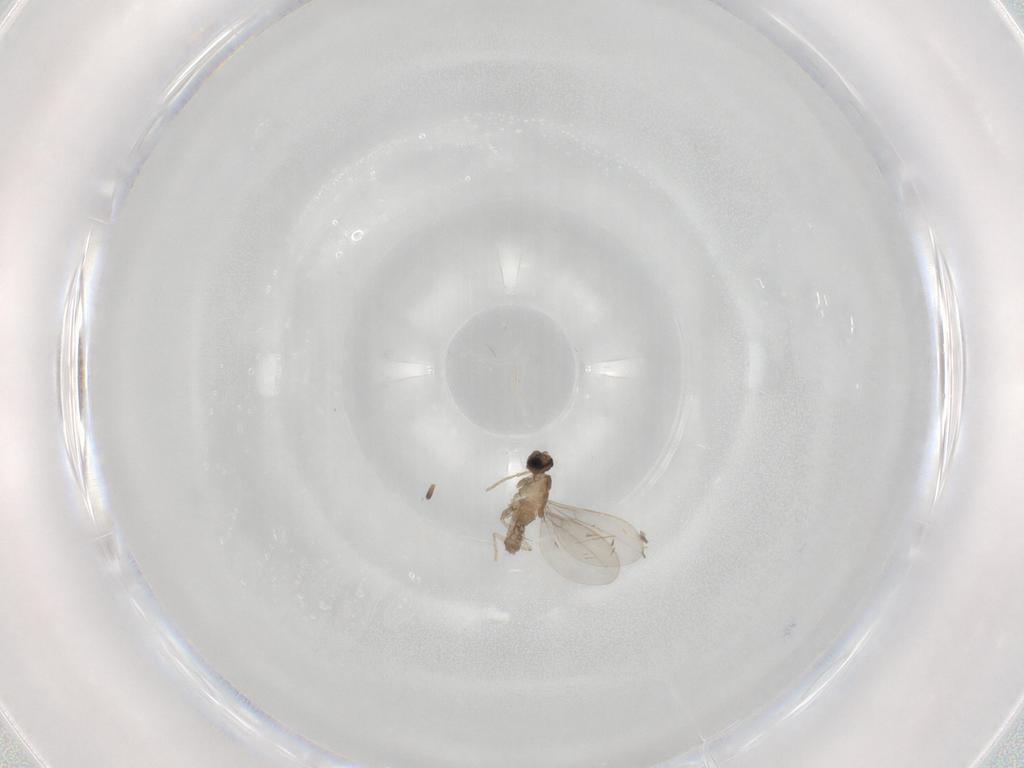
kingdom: Animalia
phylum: Arthropoda
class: Insecta
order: Diptera
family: Cecidomyiidae
